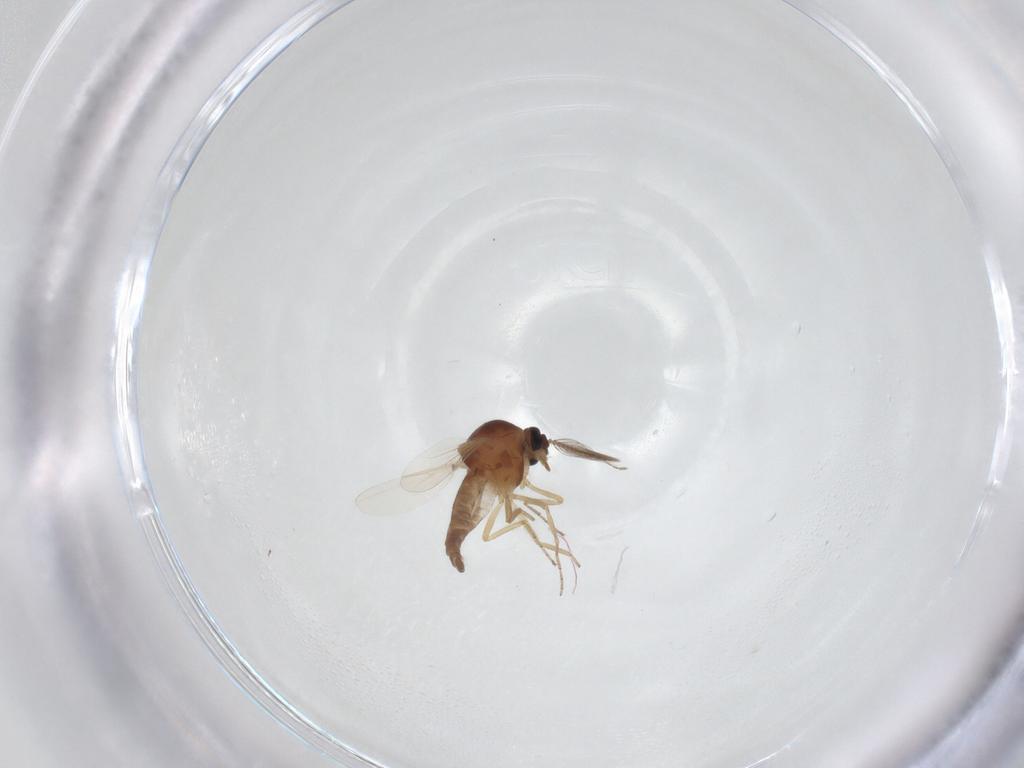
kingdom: Animalia
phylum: Arthropoda
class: Insecta
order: Diptera
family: Ceratopogonidae
